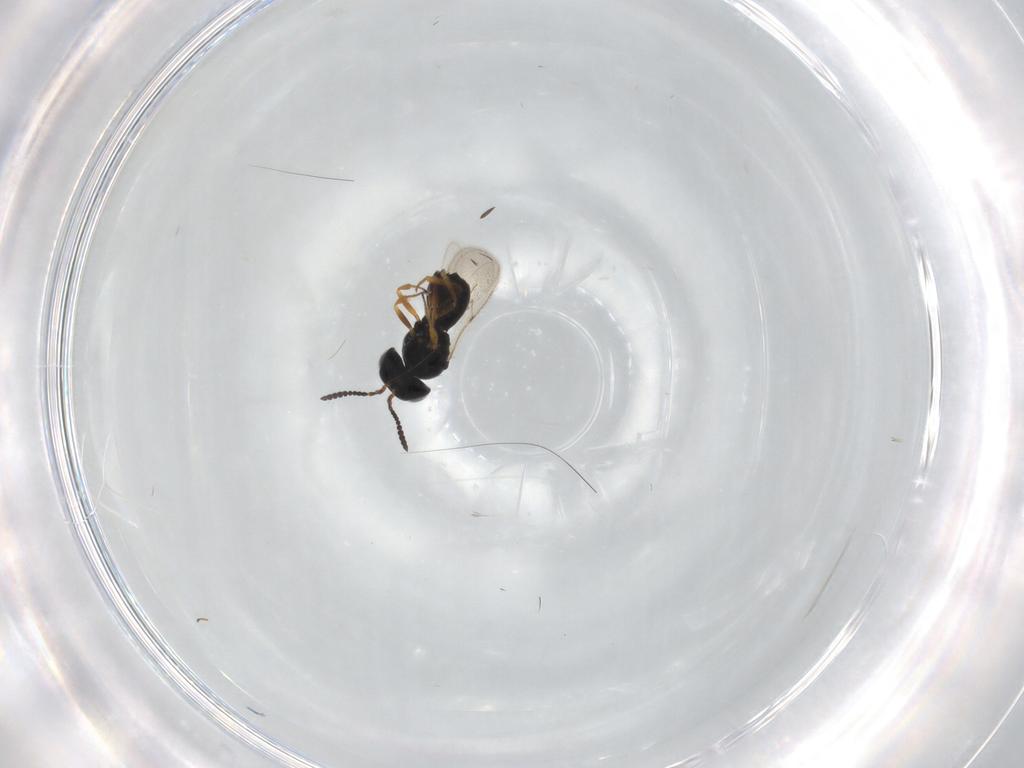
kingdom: Animalia
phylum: Arthropoda
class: Insecta
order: Hymenoptera
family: Scelionidae
